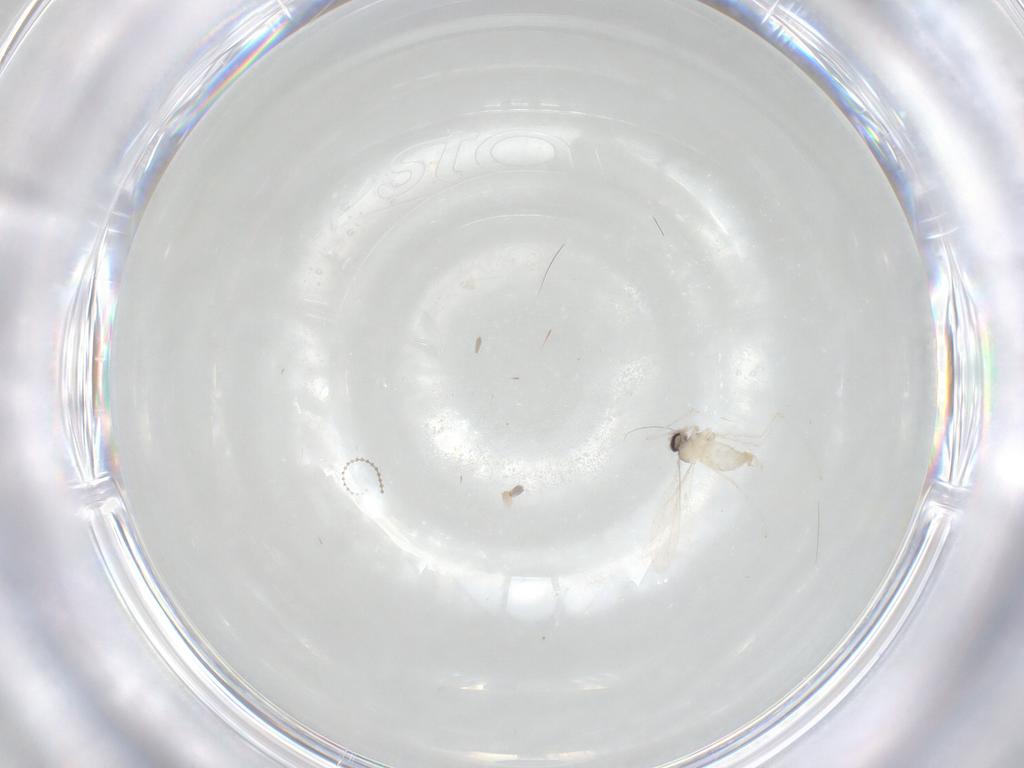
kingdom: Animalia
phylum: Arthropoda
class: Insecta
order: Diptera
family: Cecidomyiidae
